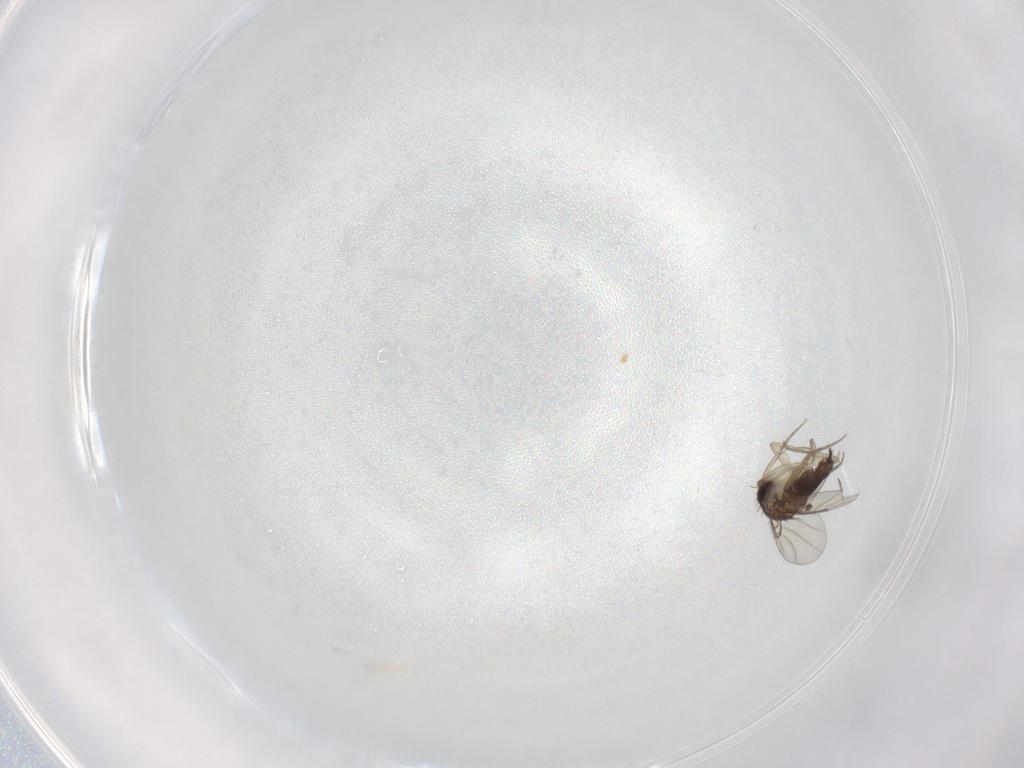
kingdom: Animalia
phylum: Arthropoda
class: Insecta
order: Diptera
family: Phoridae
